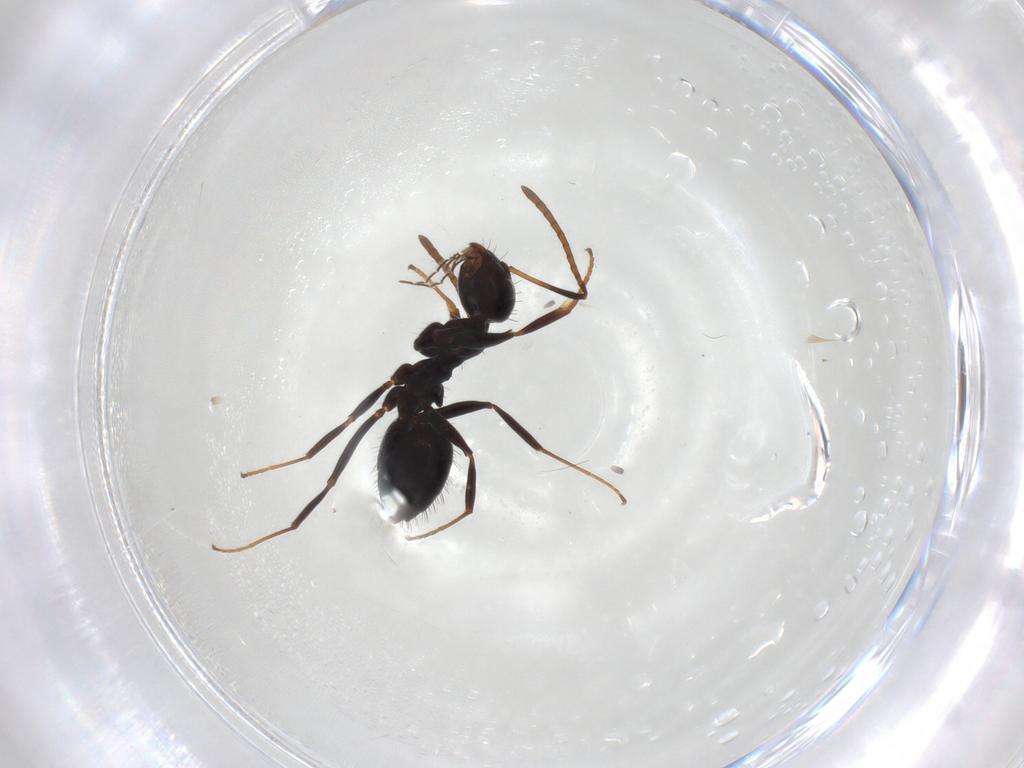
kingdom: Animalia
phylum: Arthropoda
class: Insecta
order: Hymenoptera
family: Formicidae
